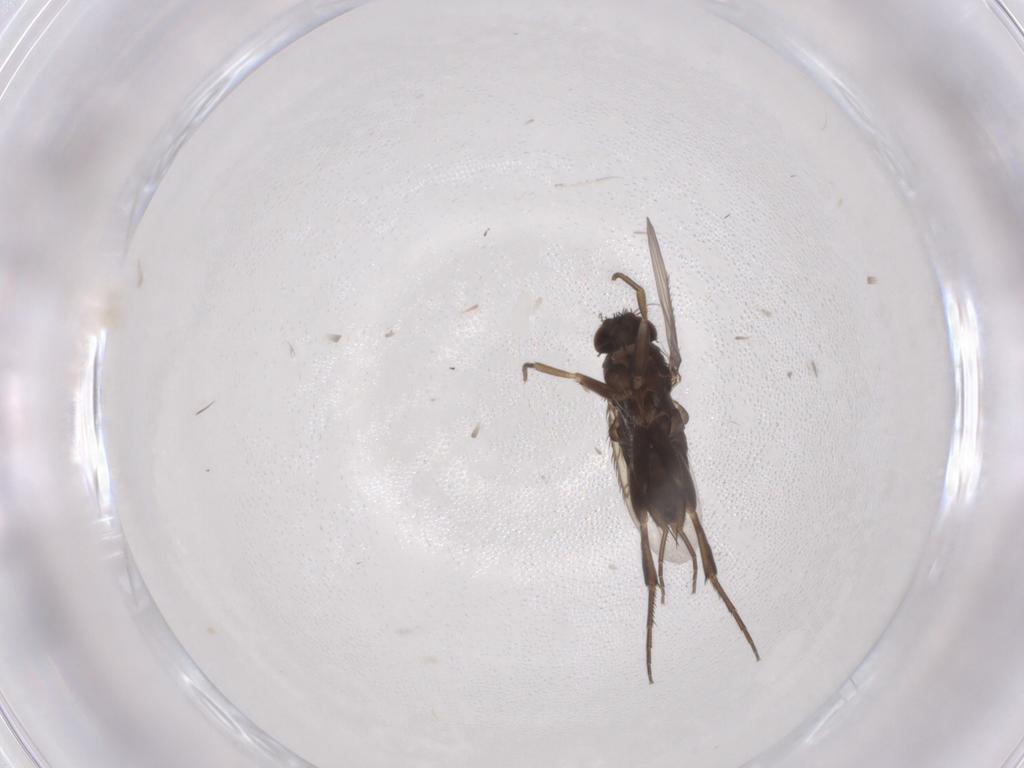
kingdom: Animalia
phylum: Arthropoda
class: Insecta
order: Diptera
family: Phoridae
